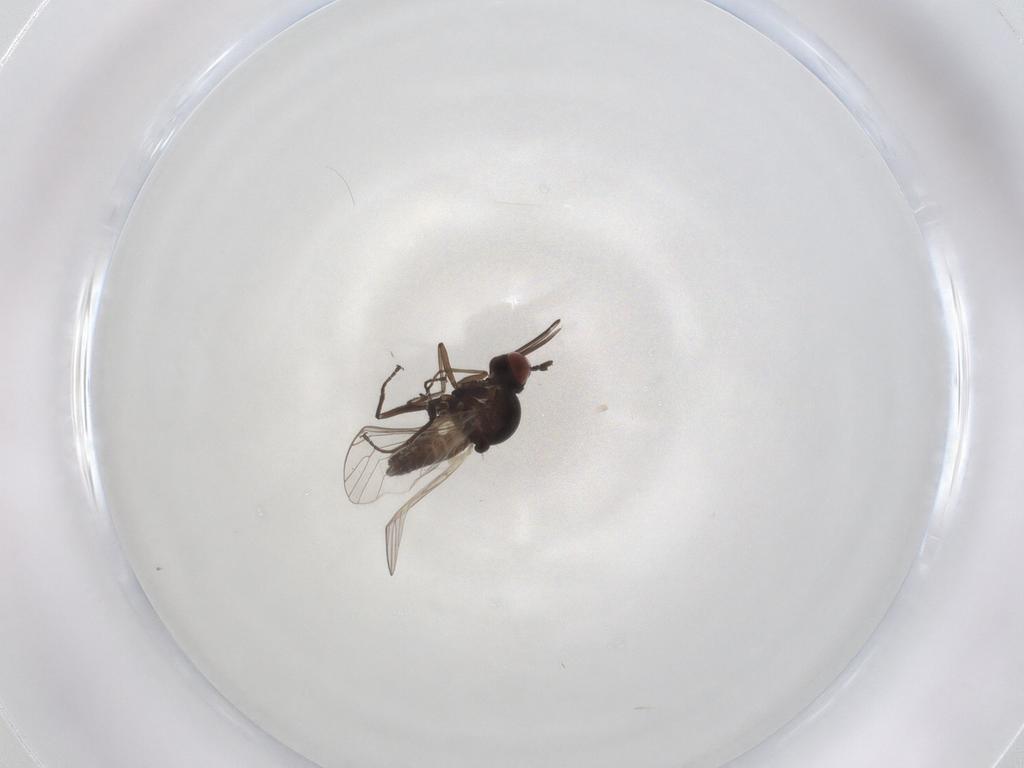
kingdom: Animalia
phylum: Arthropoda
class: Insecta
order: Diptera
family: Bombyliidae
